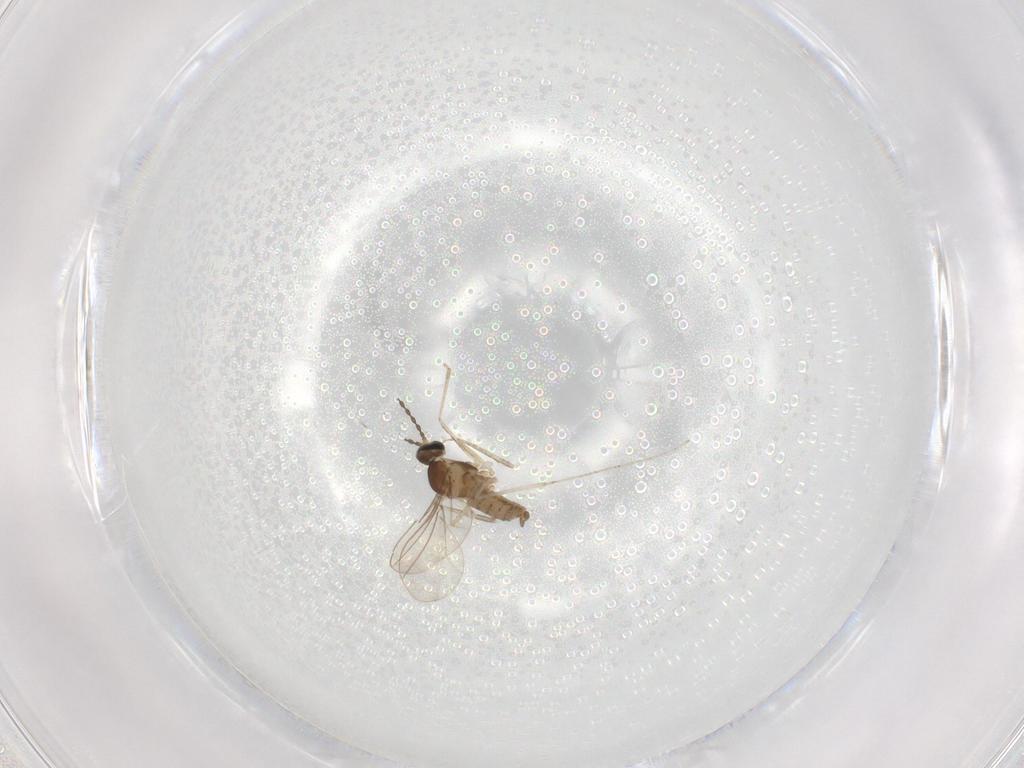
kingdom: Animalia
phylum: Arthropoda
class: Insecta
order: Diptera
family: Cecidomyiidae
